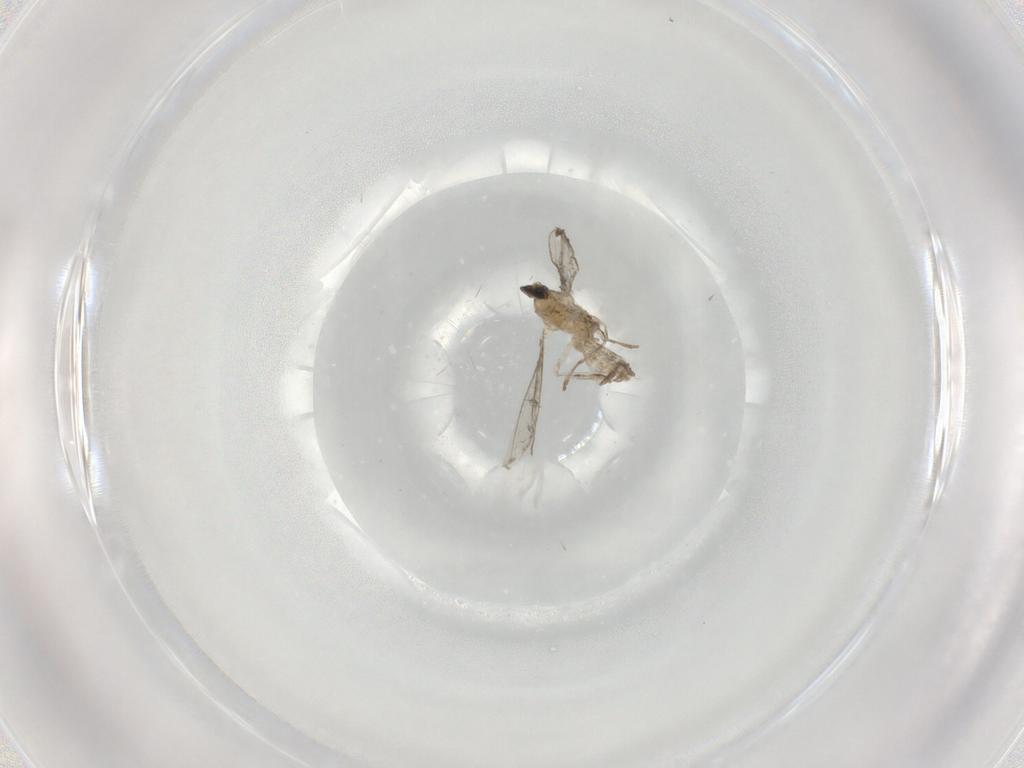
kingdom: Animalia
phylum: Arthropoda
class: Insecta
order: Diptera
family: Cecidomyiidae
